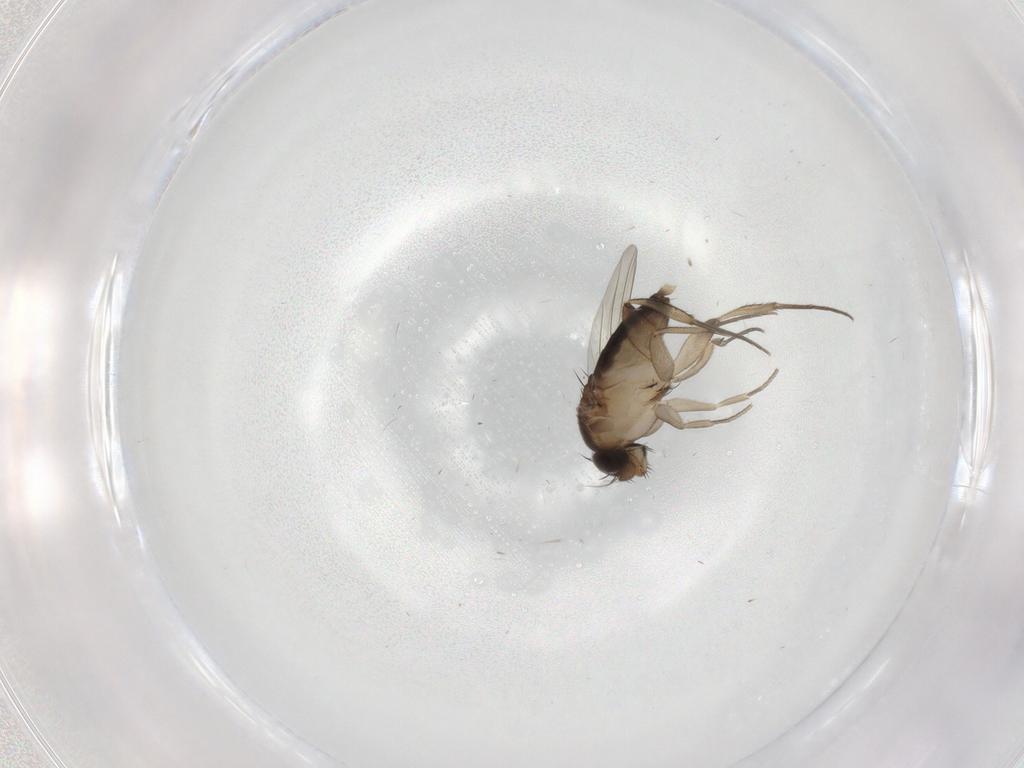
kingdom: Animalia
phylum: Arthropoda
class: Insecta
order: Diptera
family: Phoridae
